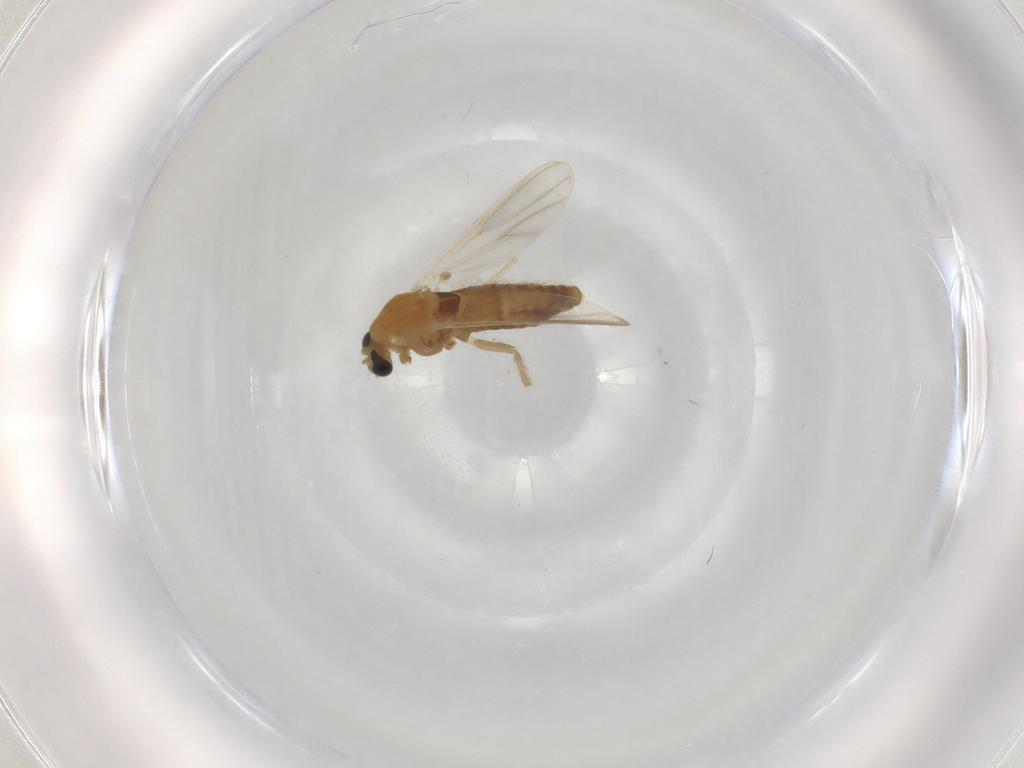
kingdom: Animalia
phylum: Arthropoda
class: Insecta
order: Diptera
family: Chironomidae
